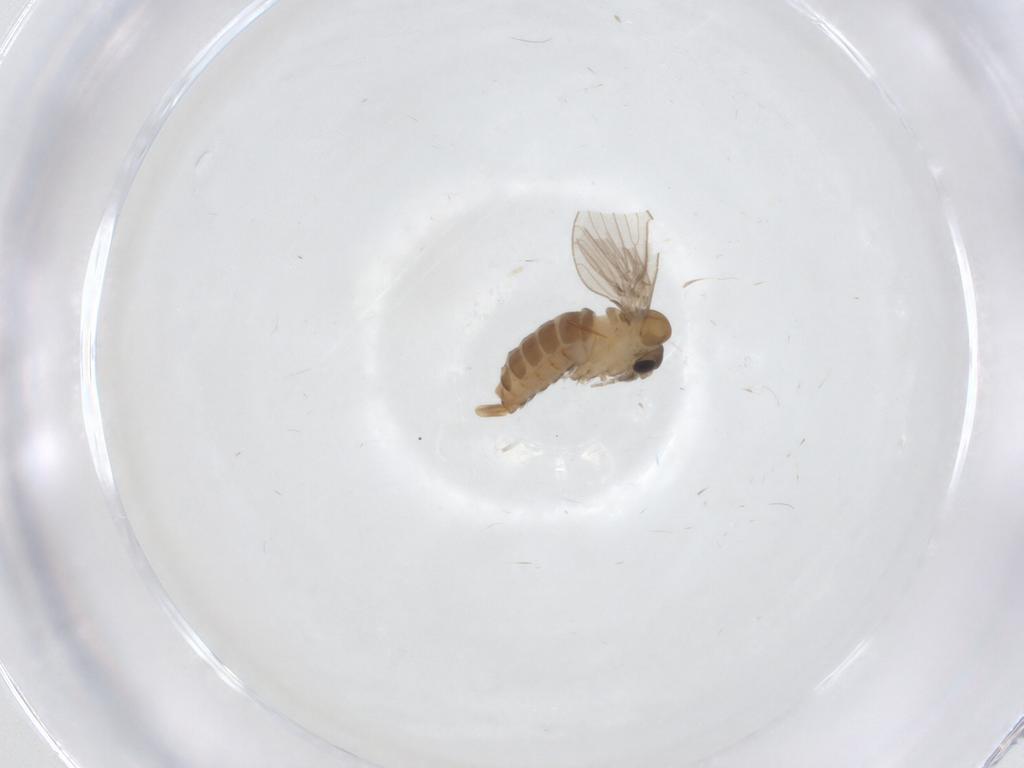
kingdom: Animalia
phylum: Arthropoda
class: Insecta
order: Diptera
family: Psychodidae
